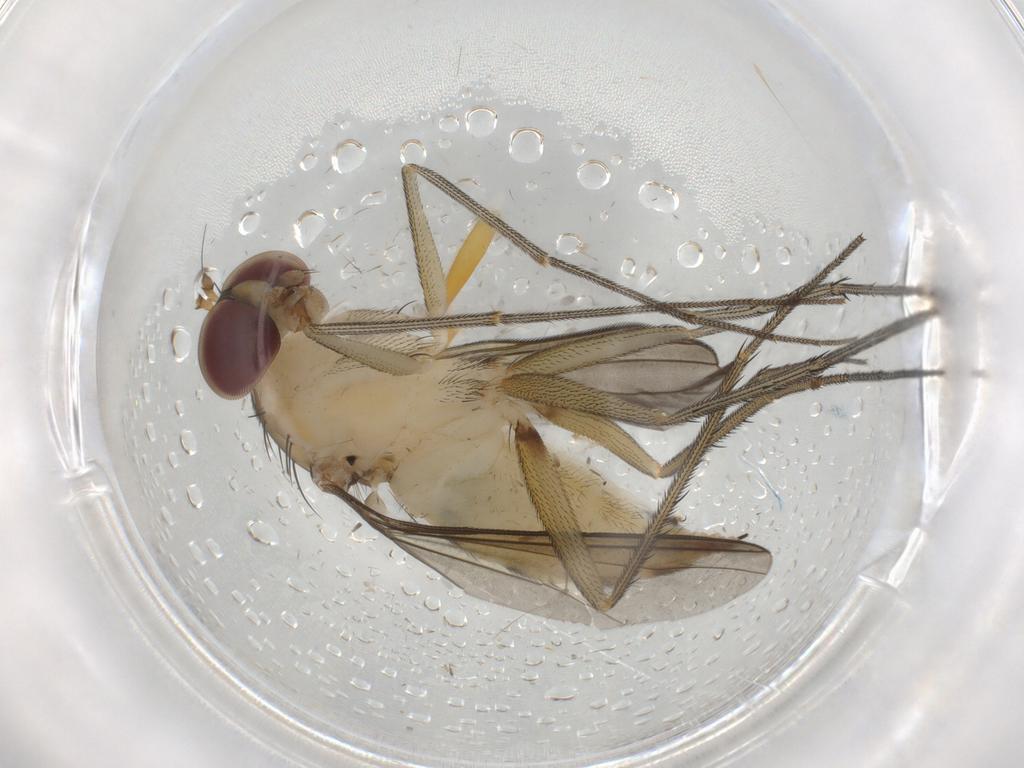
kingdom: Animalia
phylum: Arthropoda
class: Insecta
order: Diptera
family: Dolichopodidae
